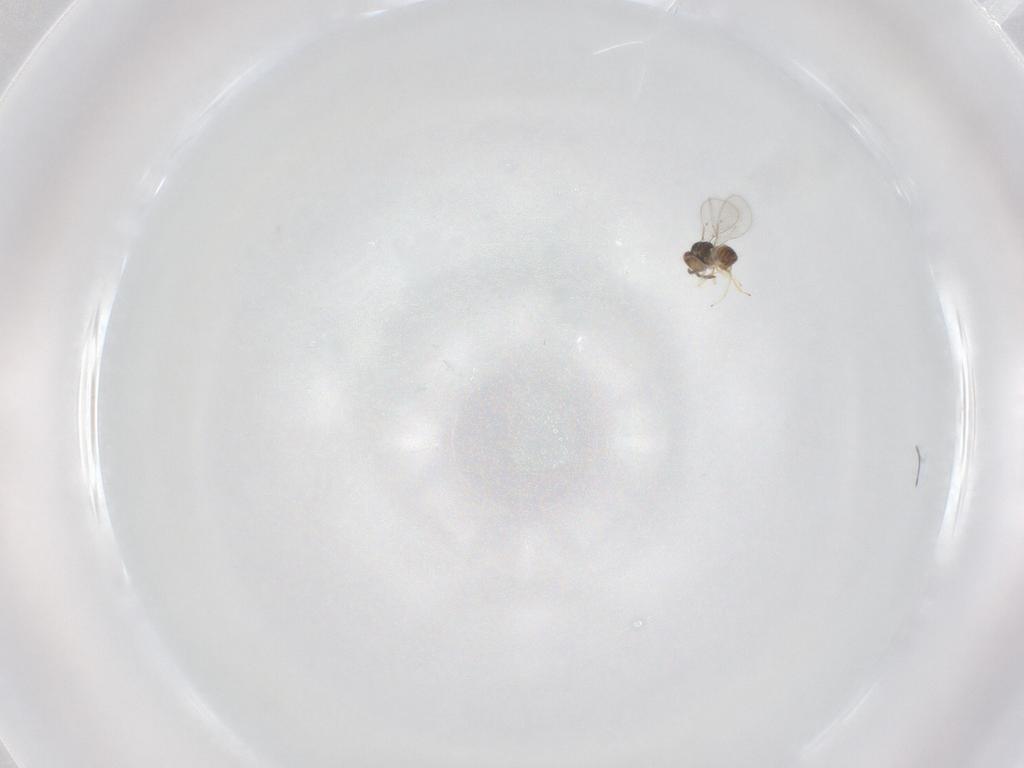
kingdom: Animalia
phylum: Arthropoda
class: Insecta
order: Hymenoptera
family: Eulophidae
